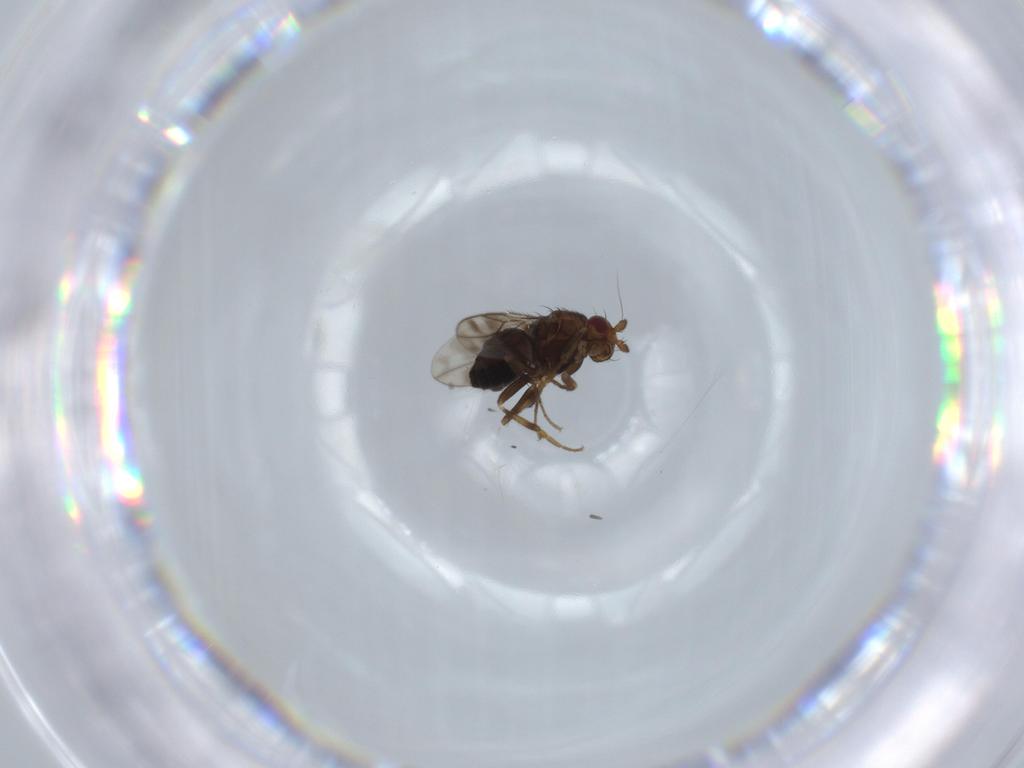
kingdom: Animalia
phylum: Arthropoda
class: Insecta
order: Diptera
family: Sphaeroceridae
